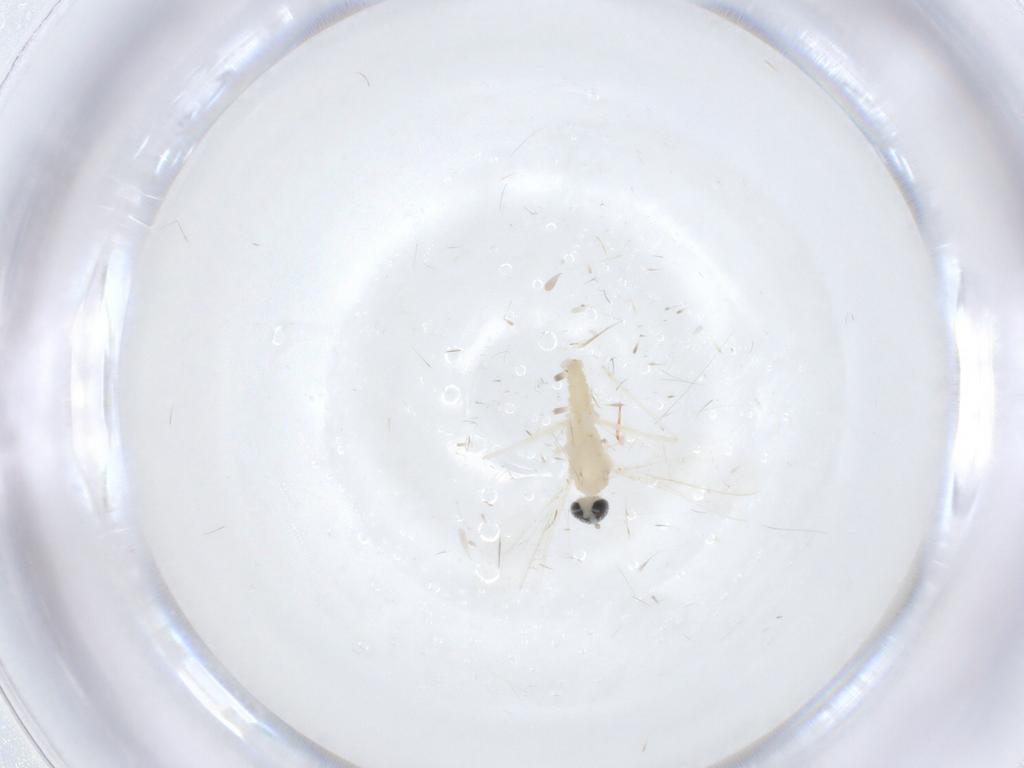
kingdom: Animalia
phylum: Arthropoda
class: Insecta
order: Diptera
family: Cecidomyiidae
